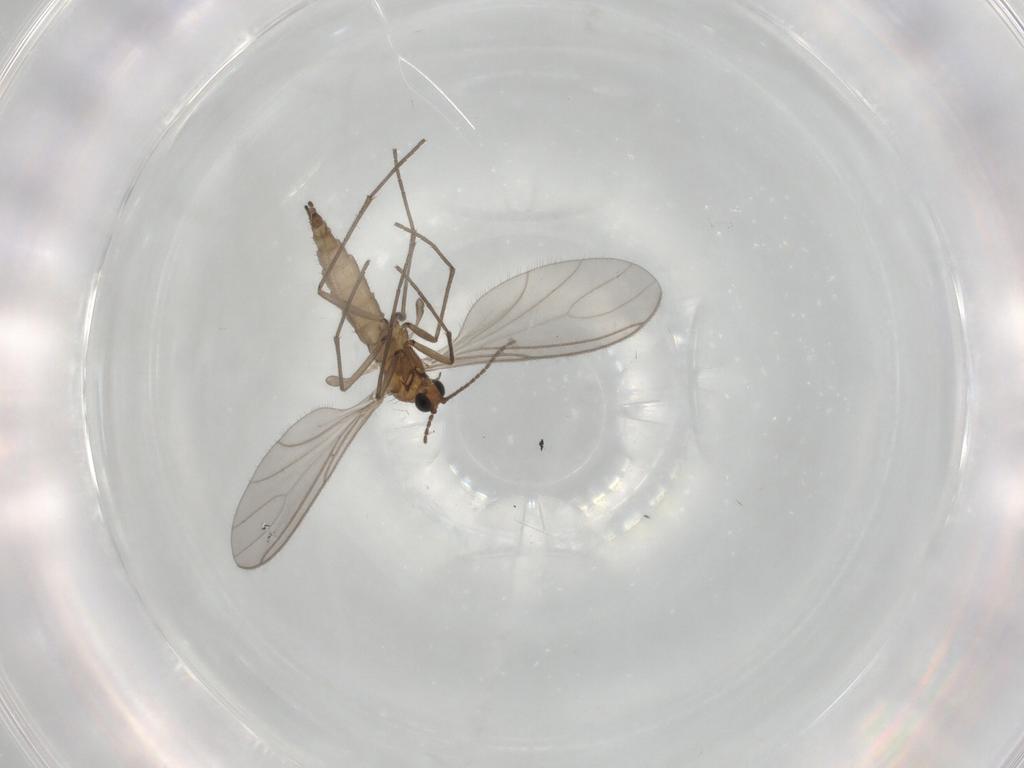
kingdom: Animalia
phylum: Arthropoda
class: Insecta
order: Diptera
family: Sciaridae
